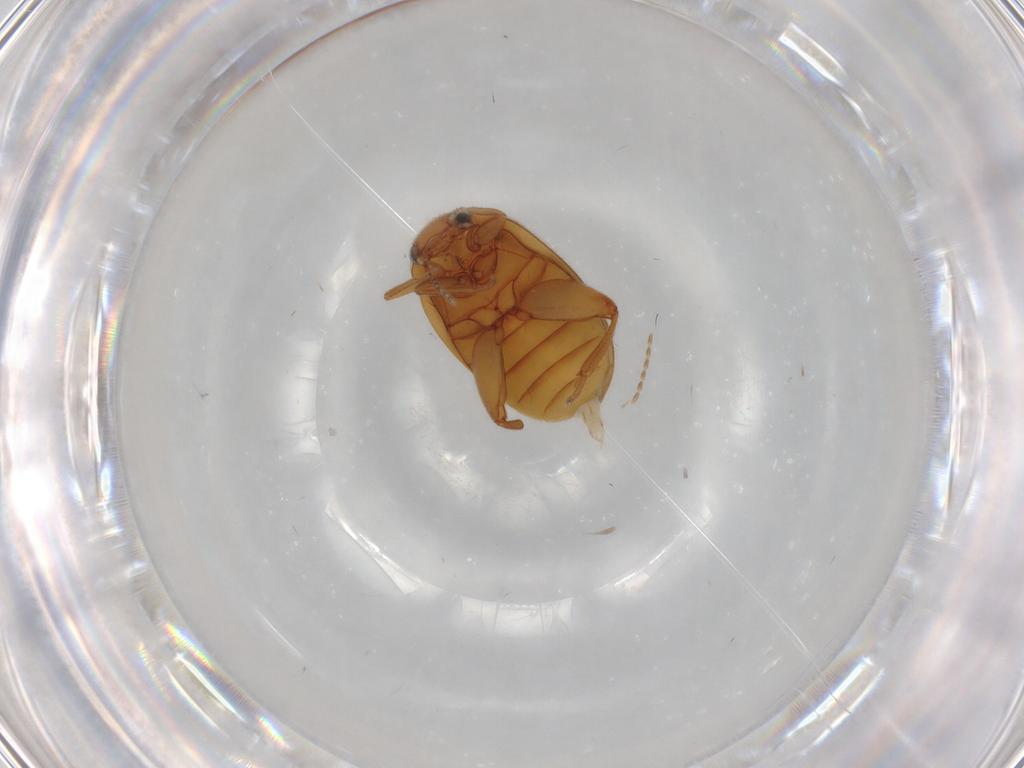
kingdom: Animalia
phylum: Arthropoda
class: Insecta
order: Coleoptera
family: Scirtidae
